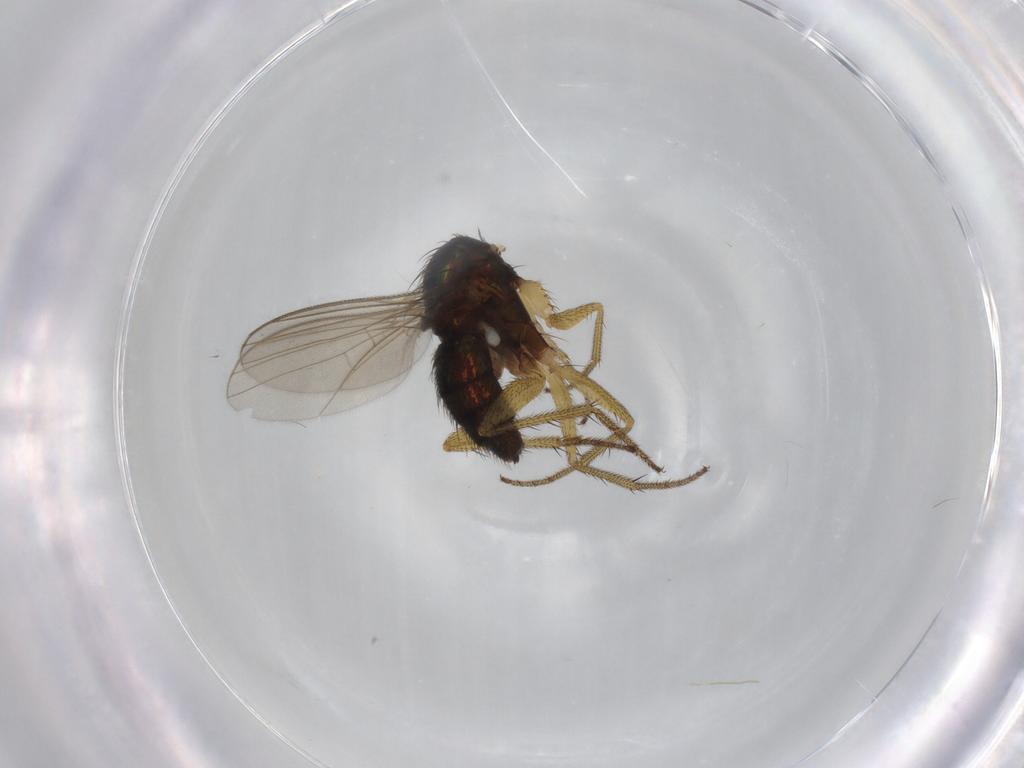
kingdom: Animalia
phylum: Arthropoda
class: Insecta
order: Diptera
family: Dolichopodidae
